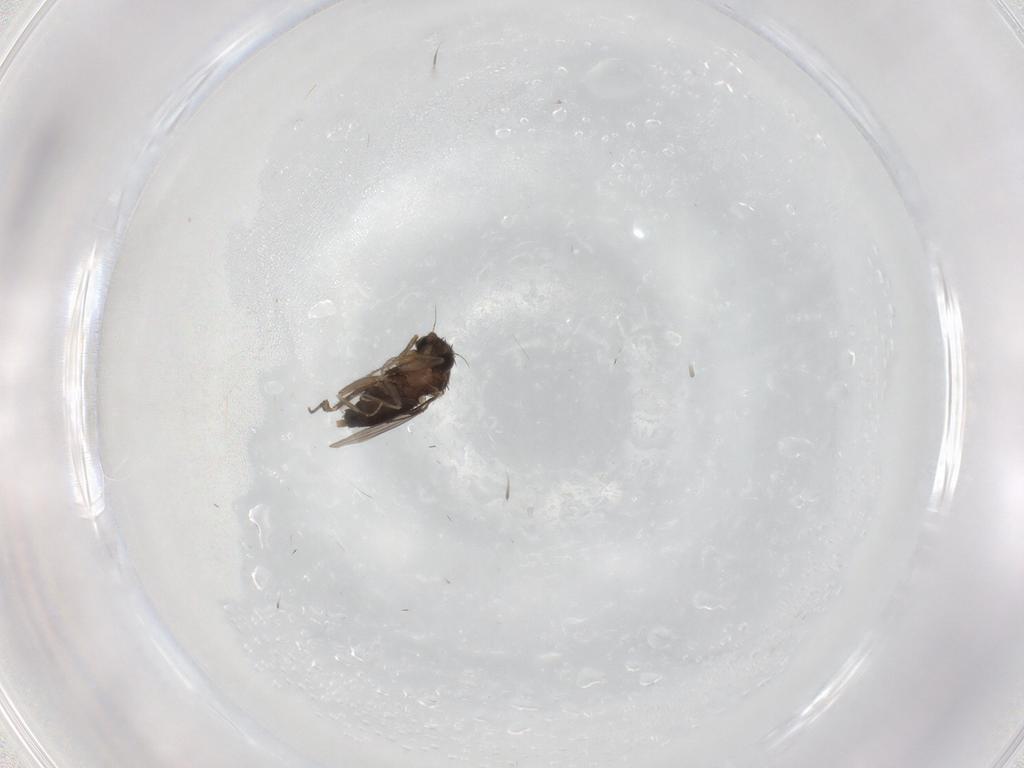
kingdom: Animalia
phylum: Arthropoda
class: Insecta
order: Diptera
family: Cecidomyiidae
